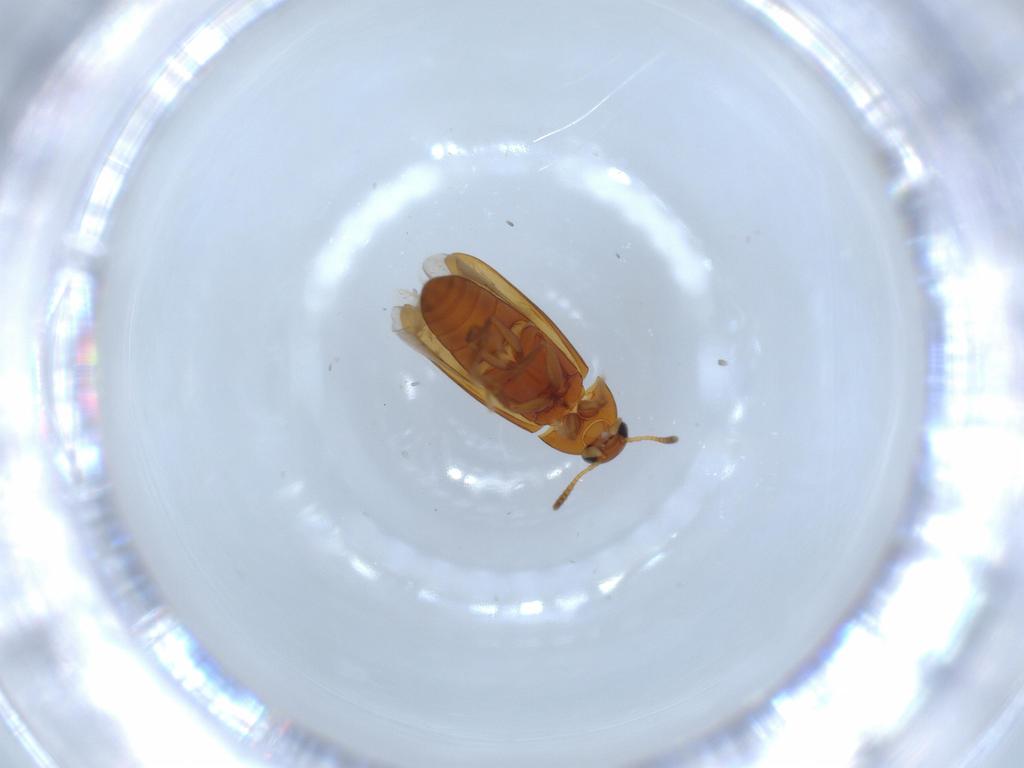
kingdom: Animalia
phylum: Arthropoda
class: Insecta
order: Coleoptera
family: Scraptiidae
